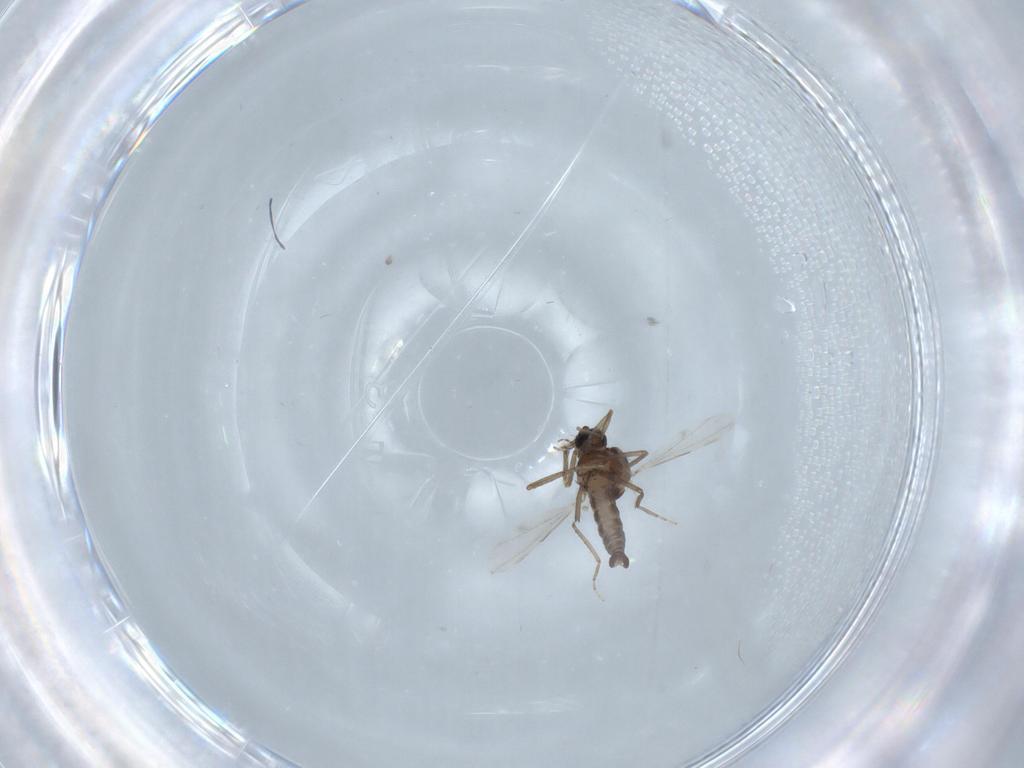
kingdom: Animalia
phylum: Arthropoda
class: Insecta
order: Diptera
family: Ceratopogonidae
